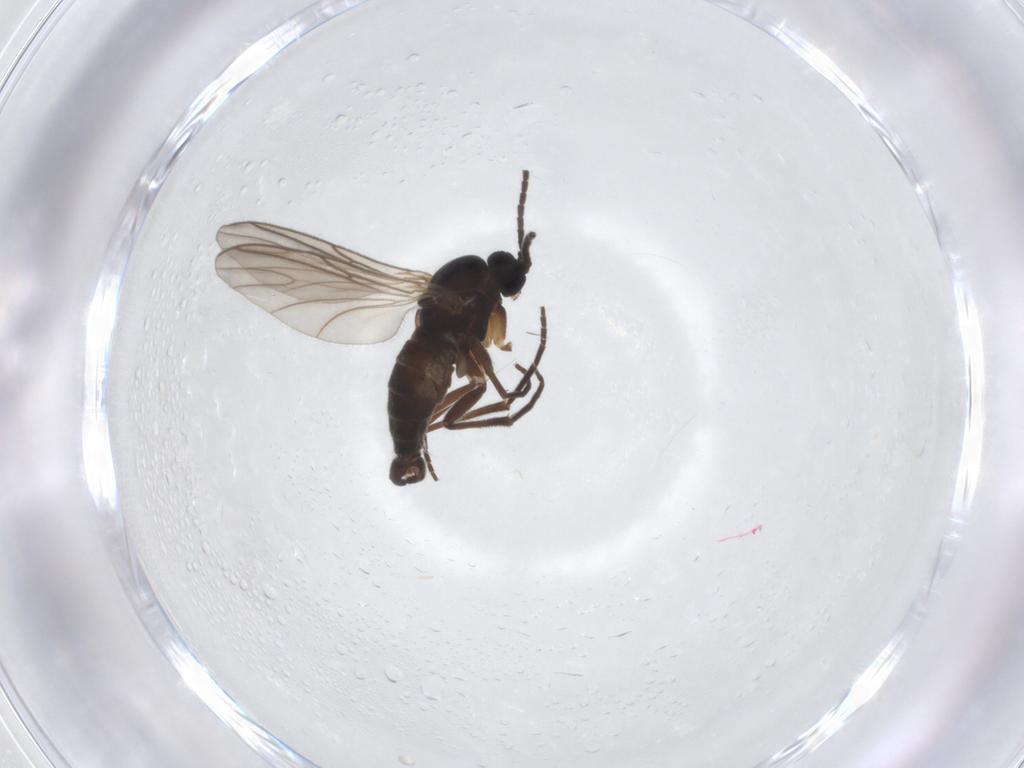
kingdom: Animalia
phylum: Arthropoda
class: Insecta
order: Diptera
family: Sciaridae
